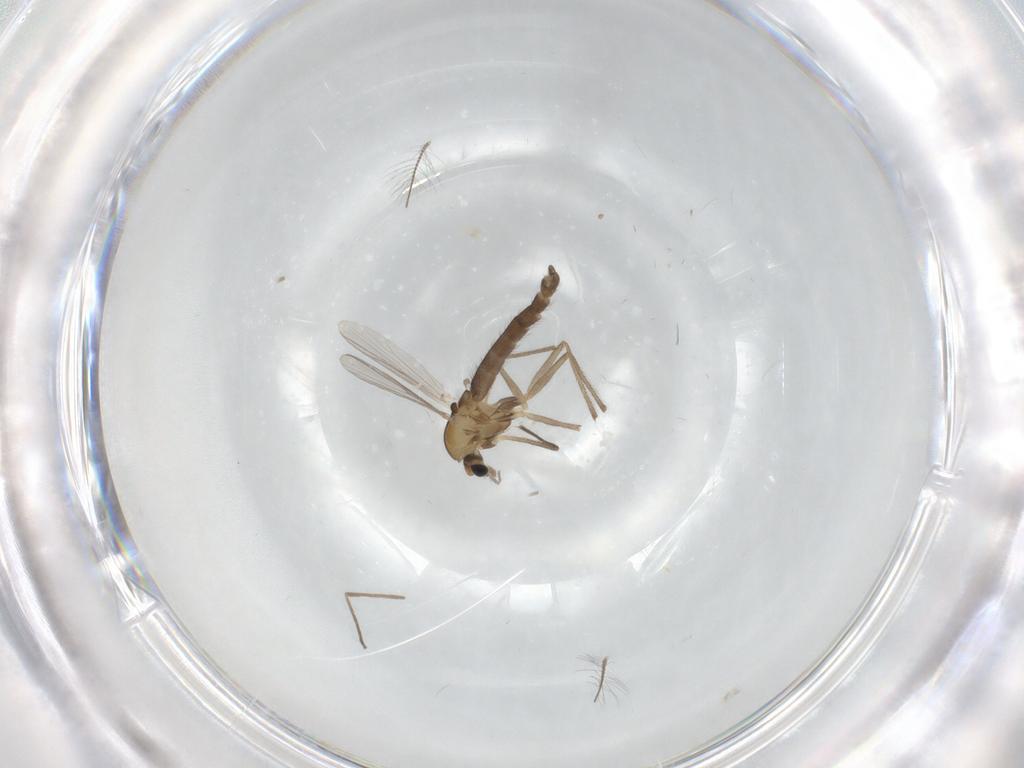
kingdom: Animalia
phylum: Arthropoda
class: Insecta
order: Diptera
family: Chironomidae
